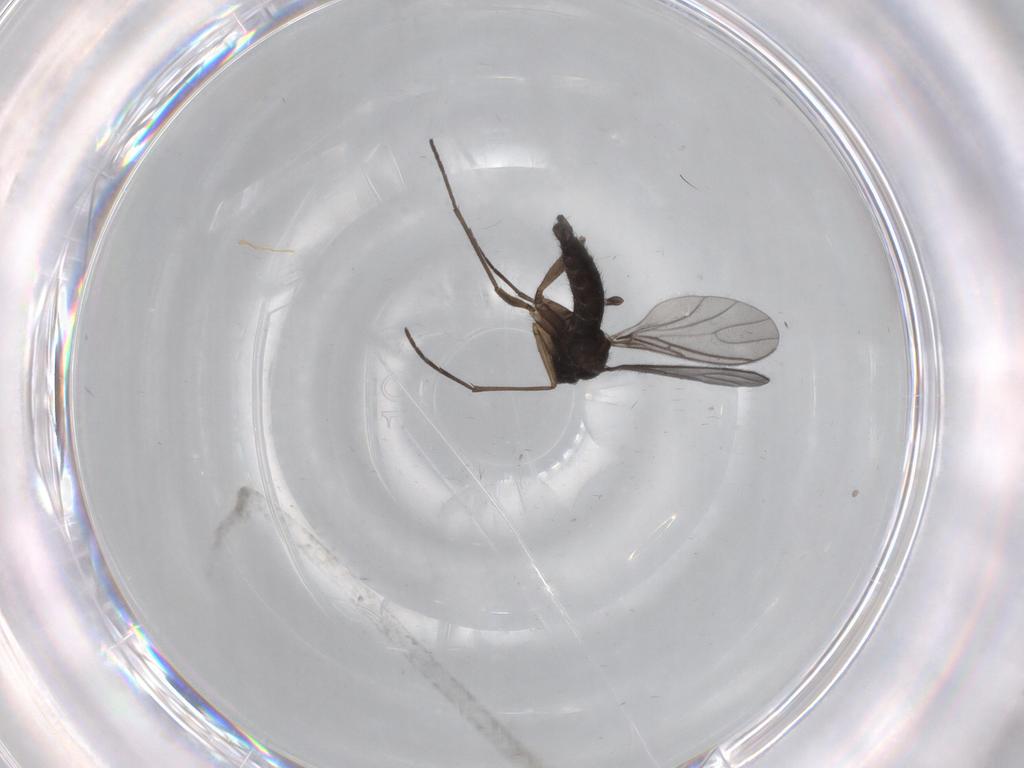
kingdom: Animalia
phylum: Arthropoda
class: Insecta
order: Diptera
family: Sciaridae
